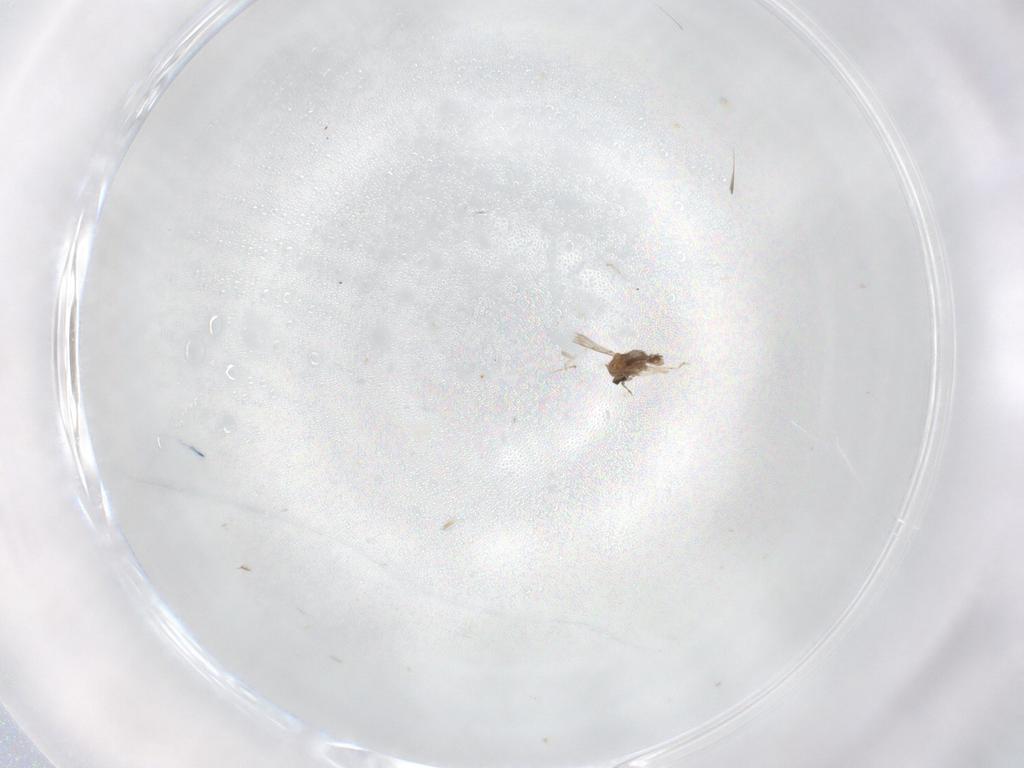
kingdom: Animalia
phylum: Arthropoda
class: Insecta
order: Diptera
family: Cecidomyiidae
